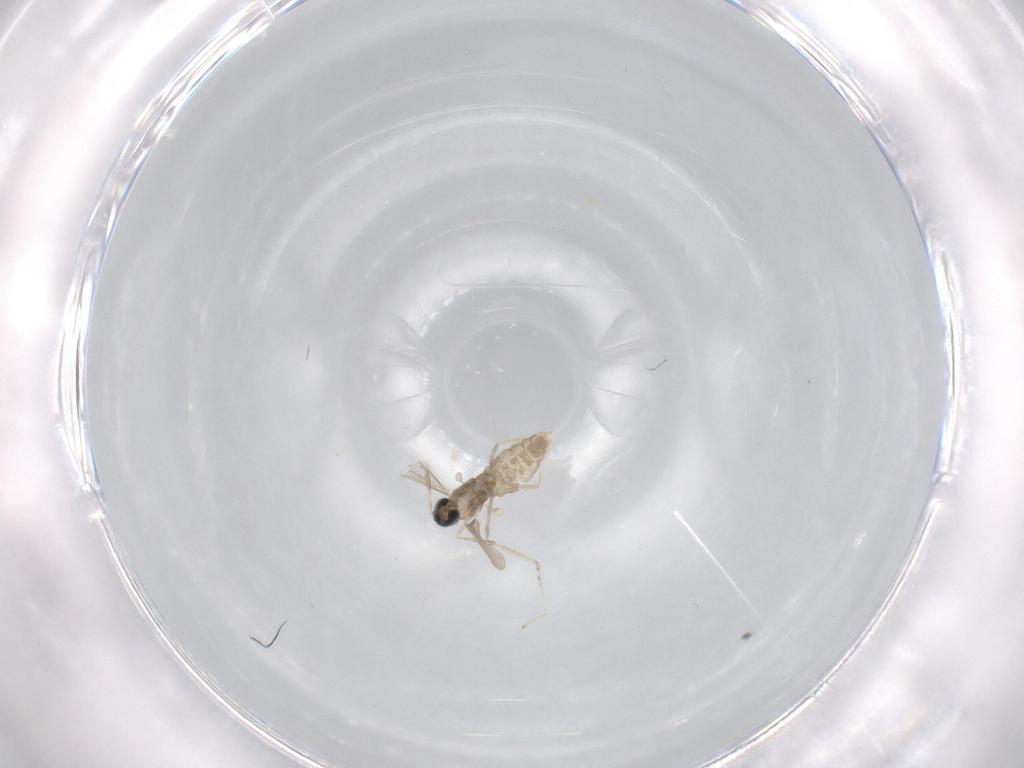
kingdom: Animalia
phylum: Arthropoda
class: Insecta
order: Diptera
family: Cecidomyiidae
